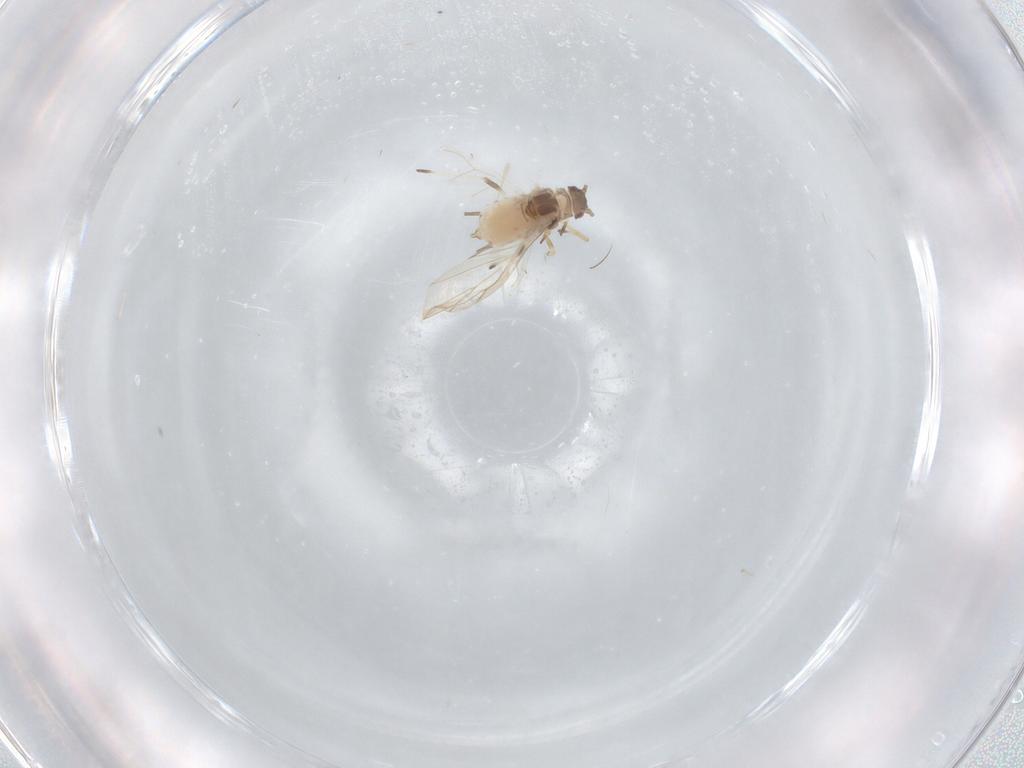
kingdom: Animalia
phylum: Arthropoda
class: Insecta
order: Hemiptera
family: Aphididae
